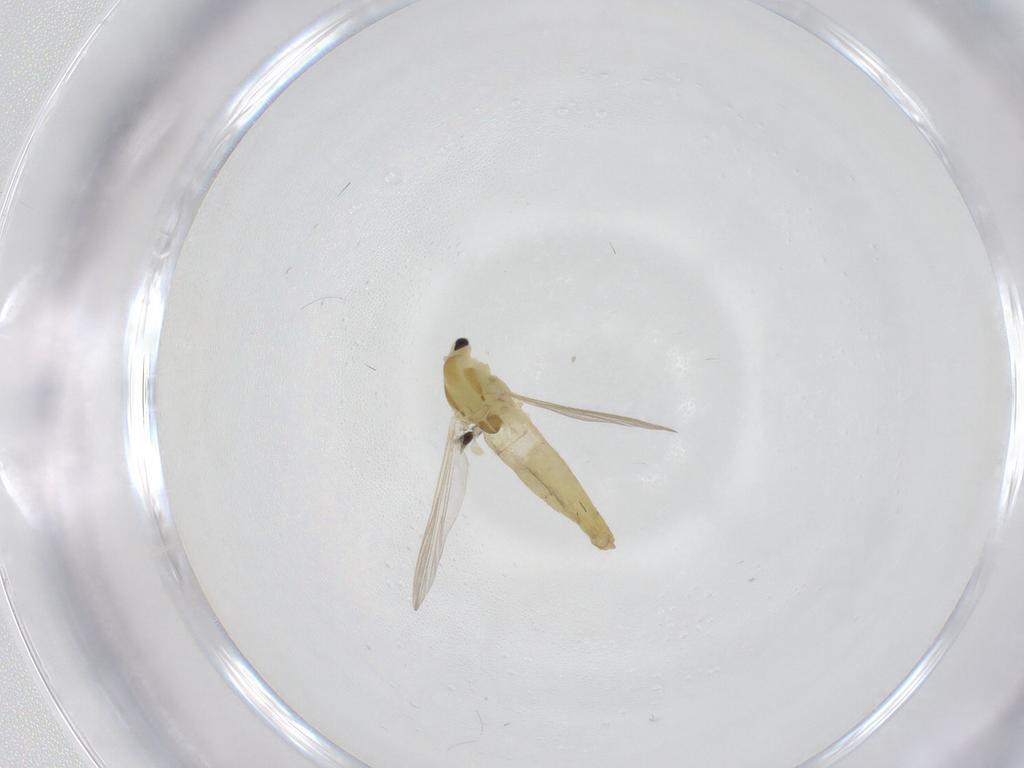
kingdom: Animalia
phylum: Arthropoda
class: Insecta
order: Diptera
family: Chironomidae
